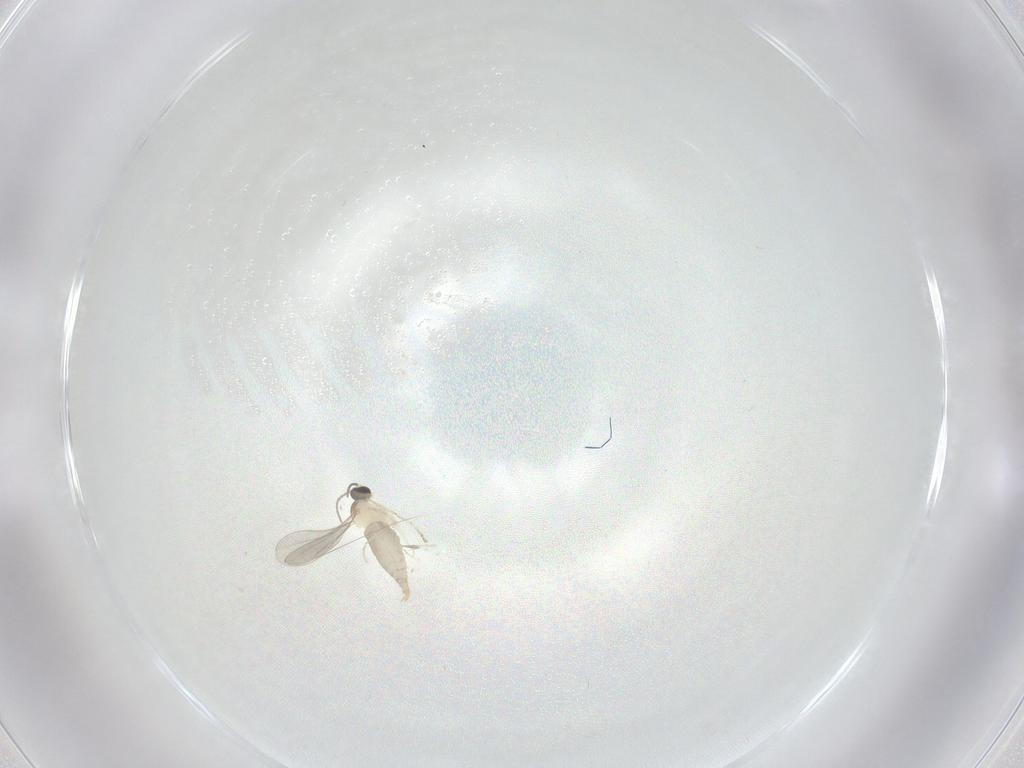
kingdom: Animalia
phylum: Arthropoda
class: Insecta
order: Diptera
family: Cecidomyiidae
